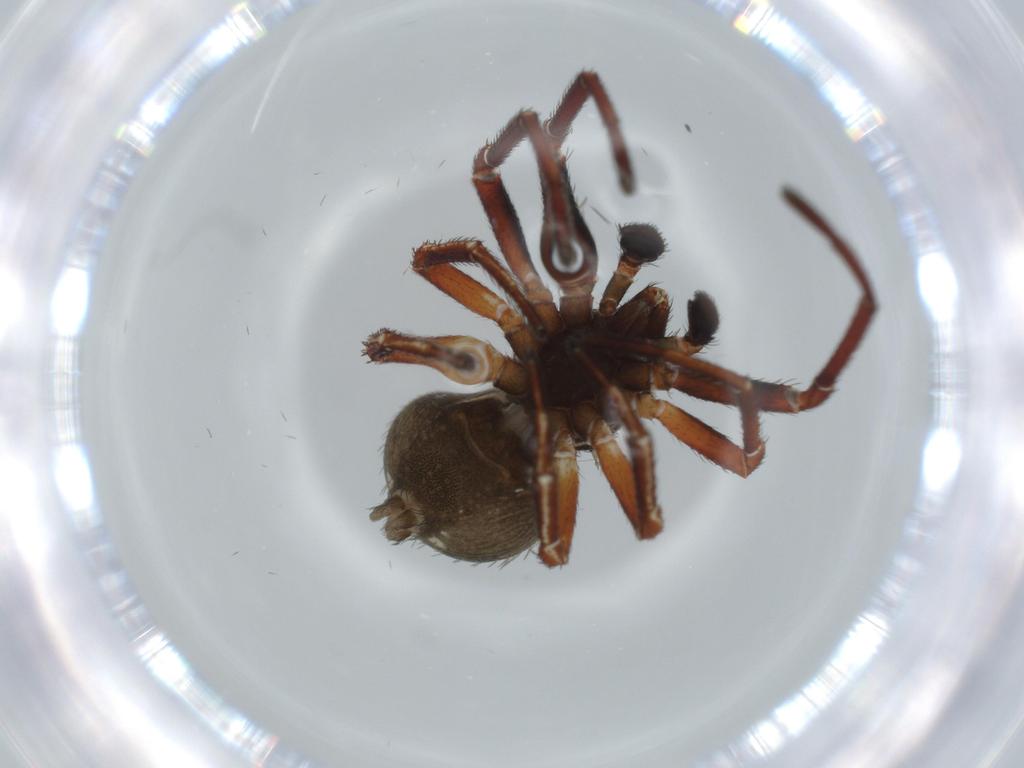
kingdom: Animalia
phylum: Arthropoda
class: Arachnida
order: Araneae
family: Thomisidae
